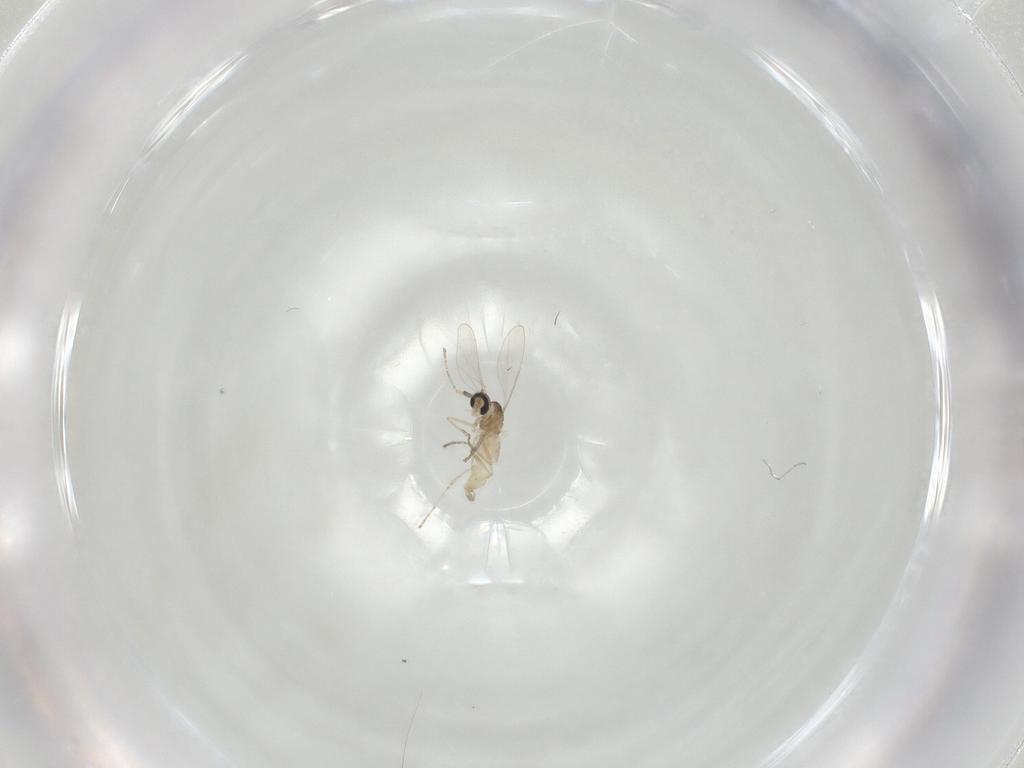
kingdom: Animalia
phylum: Arthropoda
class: Insecta
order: Diptera
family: Cecidomyiidae
